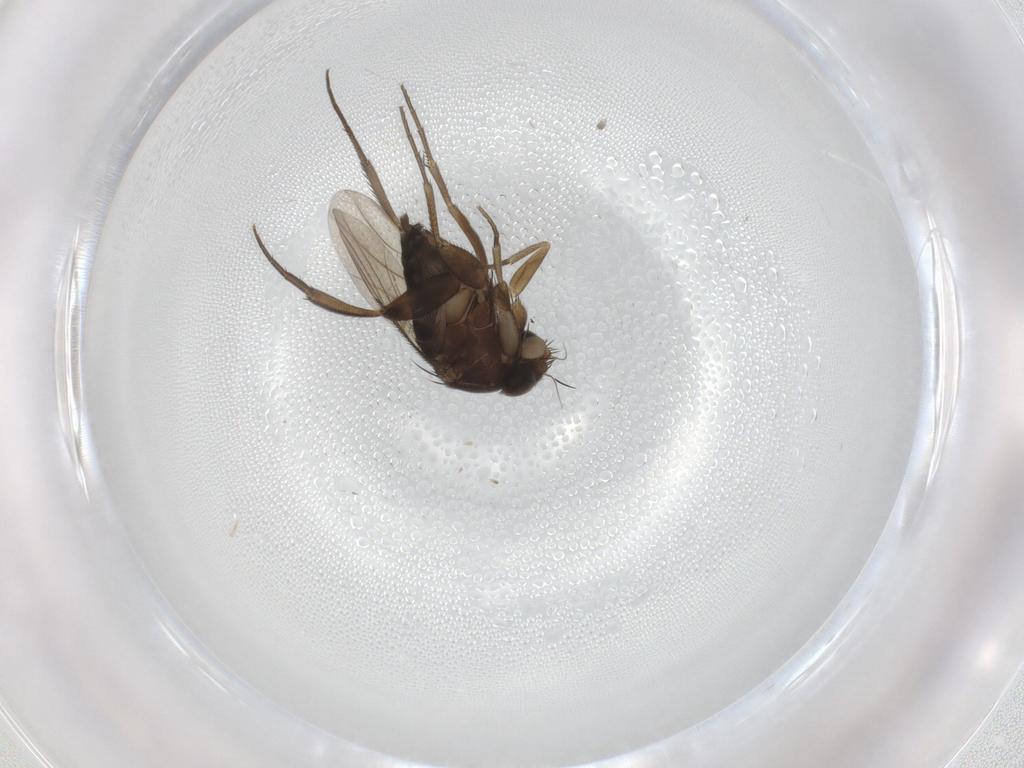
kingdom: Animalia
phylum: Arthropoda
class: Insecta
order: Diptera
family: Phoridae
